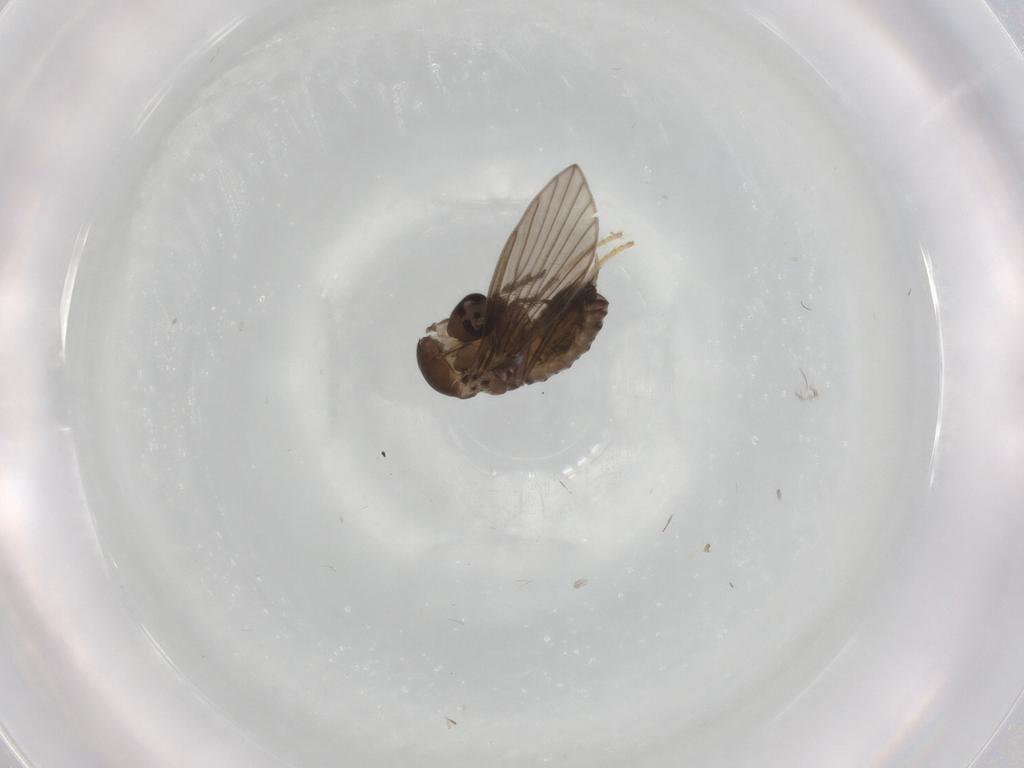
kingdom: Animalia
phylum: Arthropoda
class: Insecta
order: Diptera
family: Psychodidae
